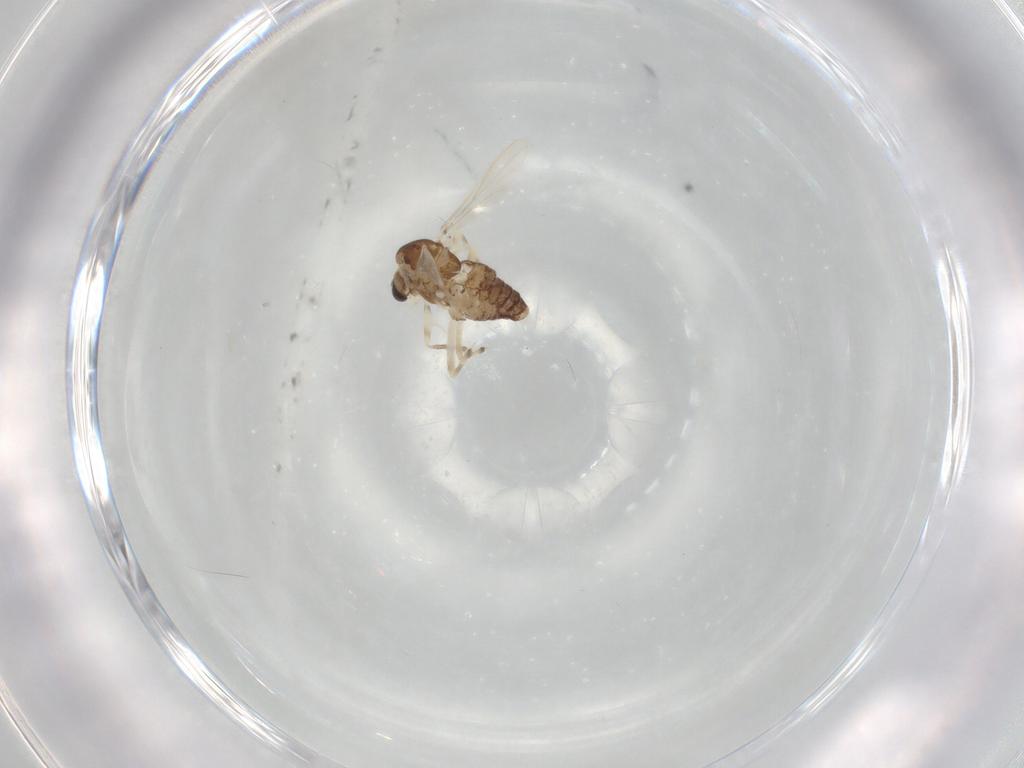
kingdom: Animalia
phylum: Arthropoda
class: Insecta
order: Diptera
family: Chironomidae
